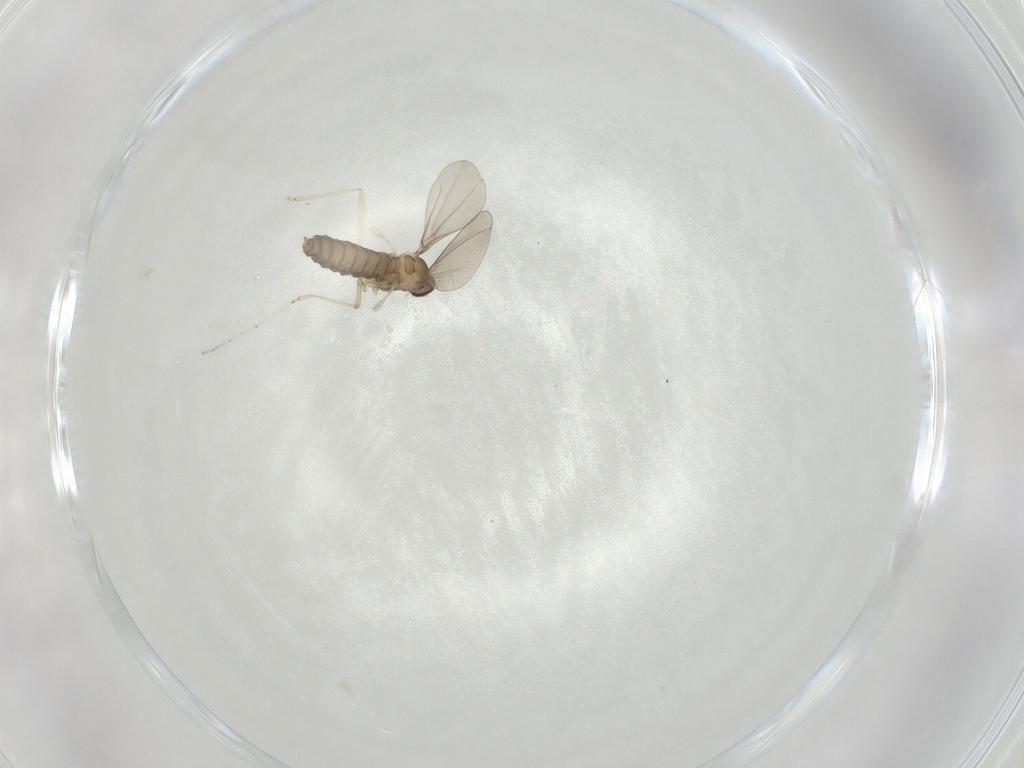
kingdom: Animalia
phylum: Arthropoda
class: Insecta
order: Diptera
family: Cecidomyiidae
